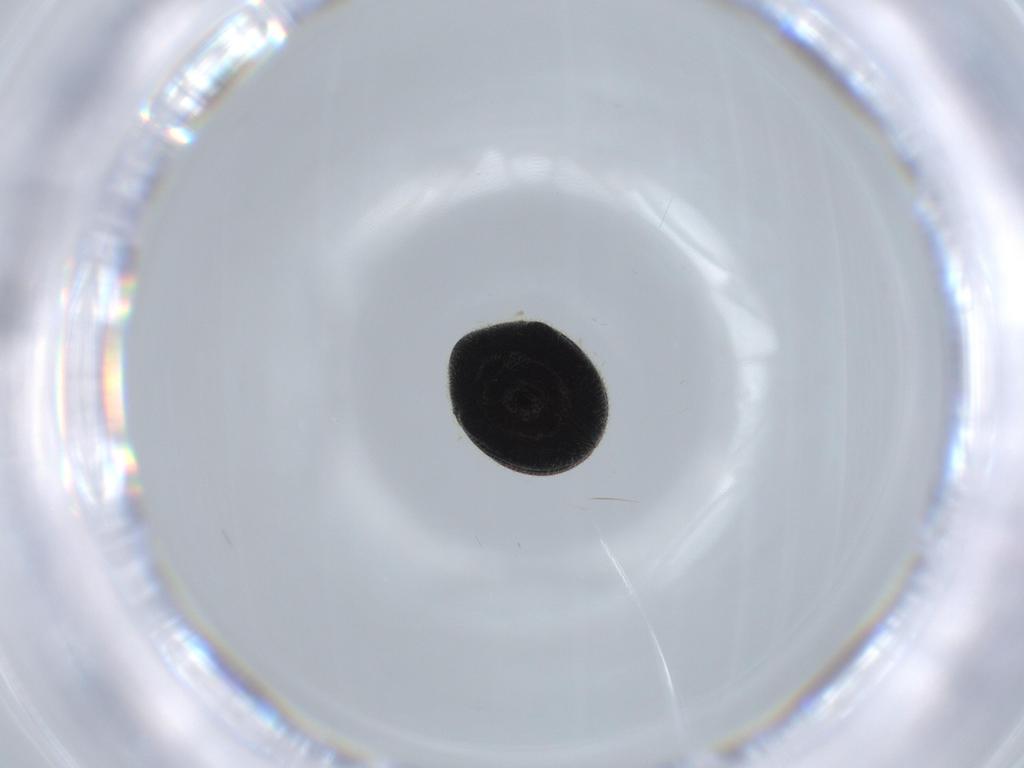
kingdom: Animalia
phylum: Arthropoda
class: Insecta
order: Coleoptera
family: Ptinidae
